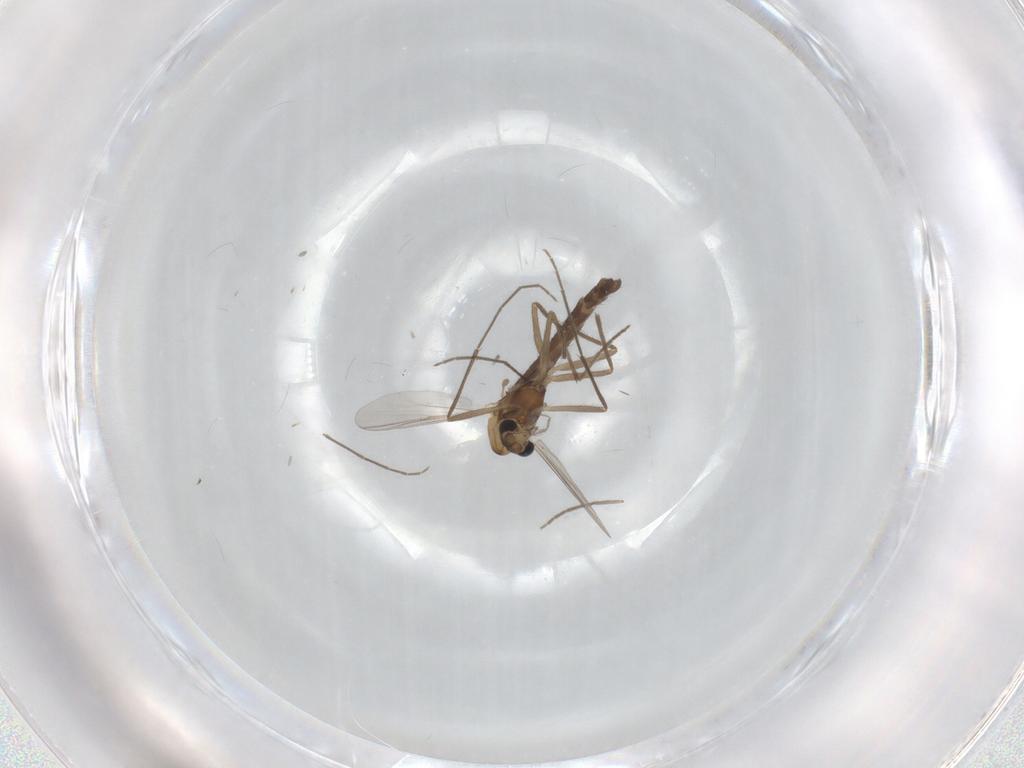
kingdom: Animalia
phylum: Arthropoda
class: Insecta
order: Diptera
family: Chironomidae
